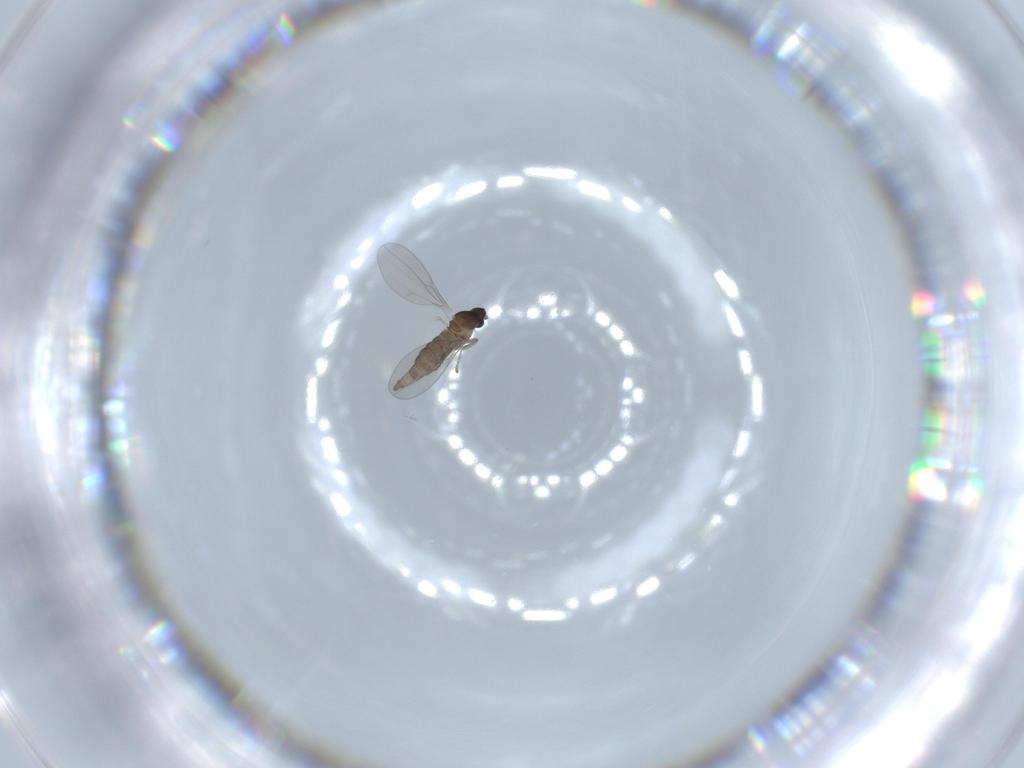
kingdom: Animalia
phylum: Arthropoda
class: Insecta
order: Diptera
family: Cecidomyiidae
